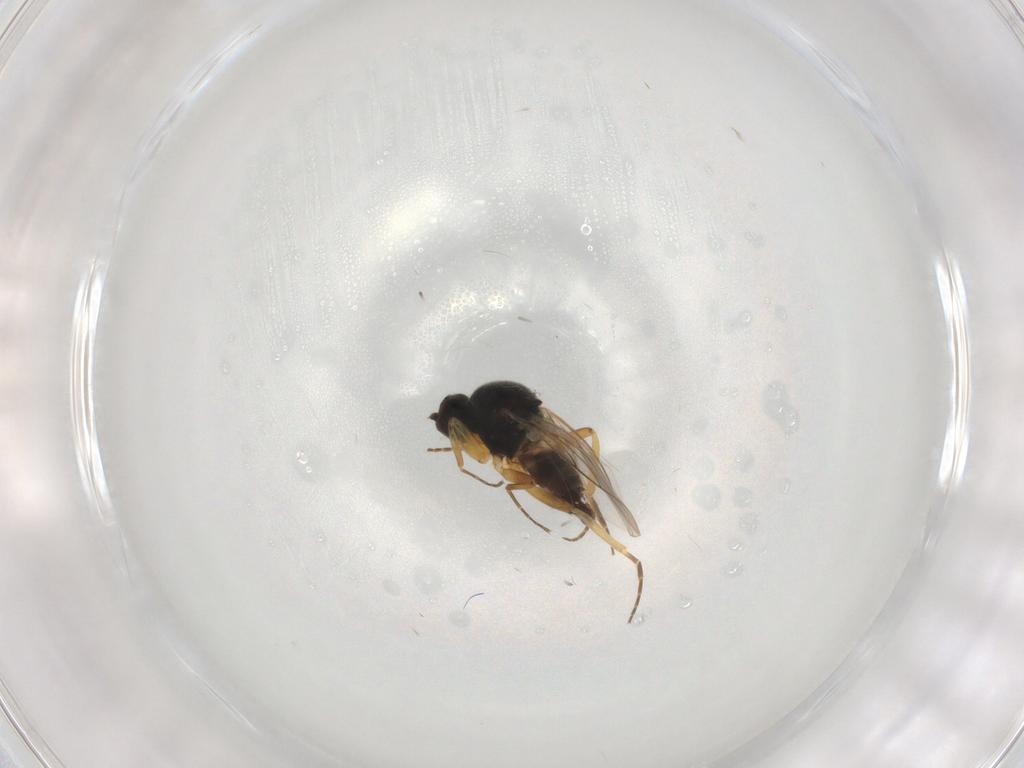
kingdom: Animalia
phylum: Arthropoda
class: Insecta
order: Diptera
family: Hybotidae
